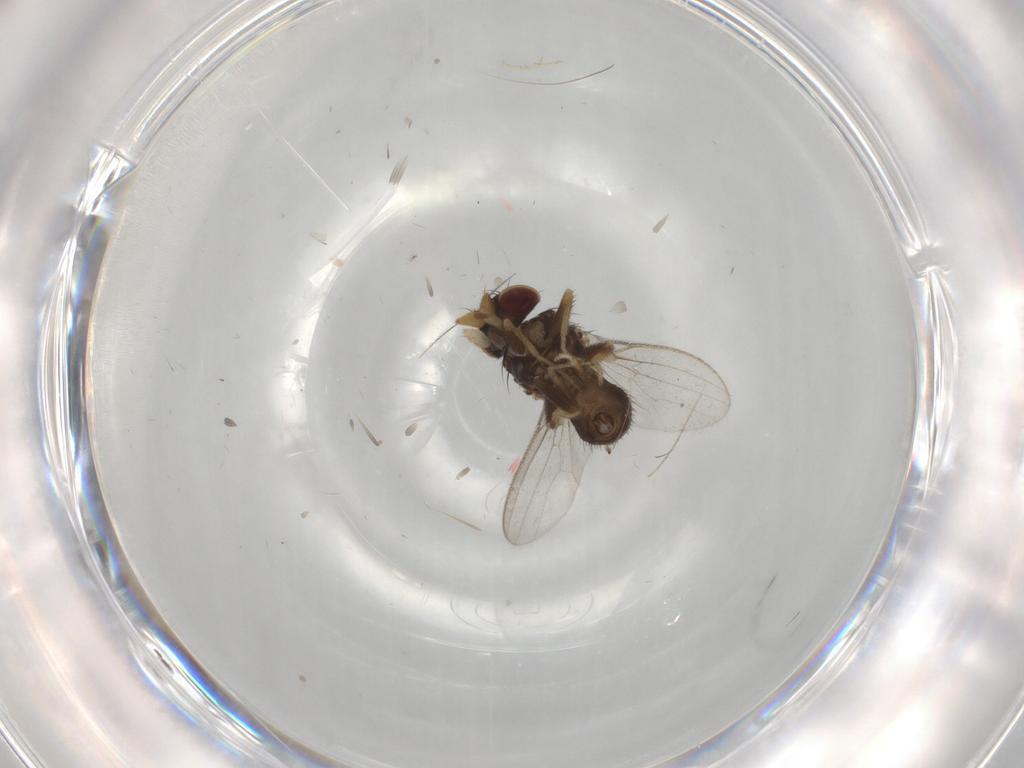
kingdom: Animalia
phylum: Arthropoda
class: Insecta
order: Diptera
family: Milichiidae
